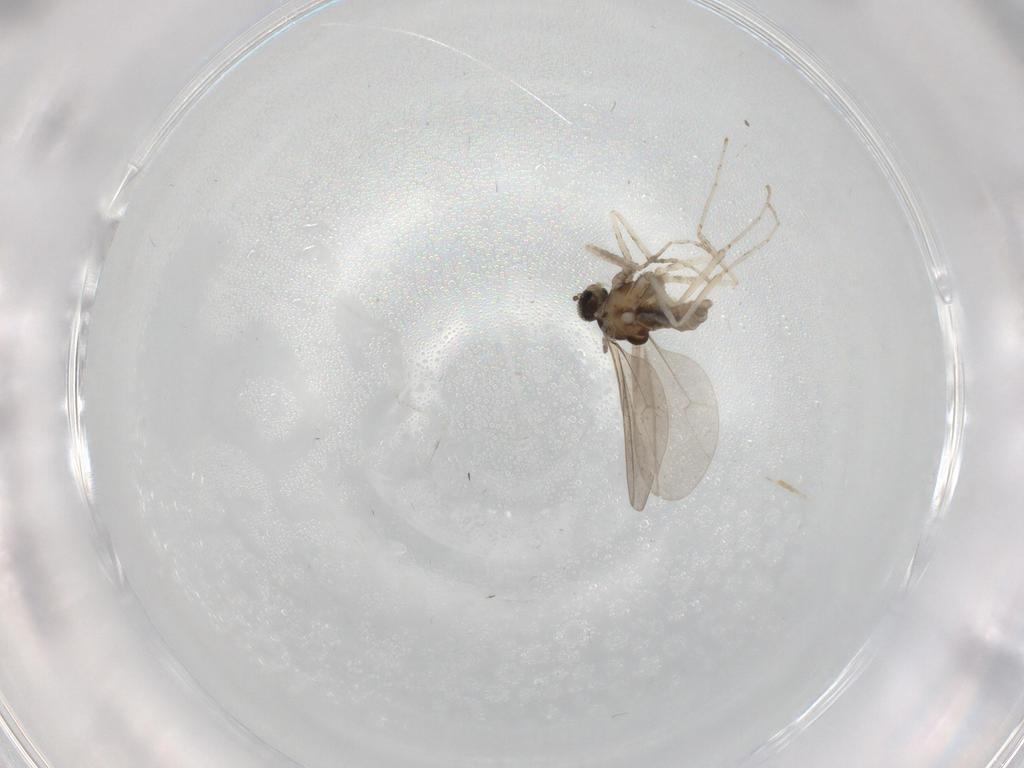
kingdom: Animalia
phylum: Arthropoda
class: Insecta
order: Diptera
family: Cecidomyiidae
